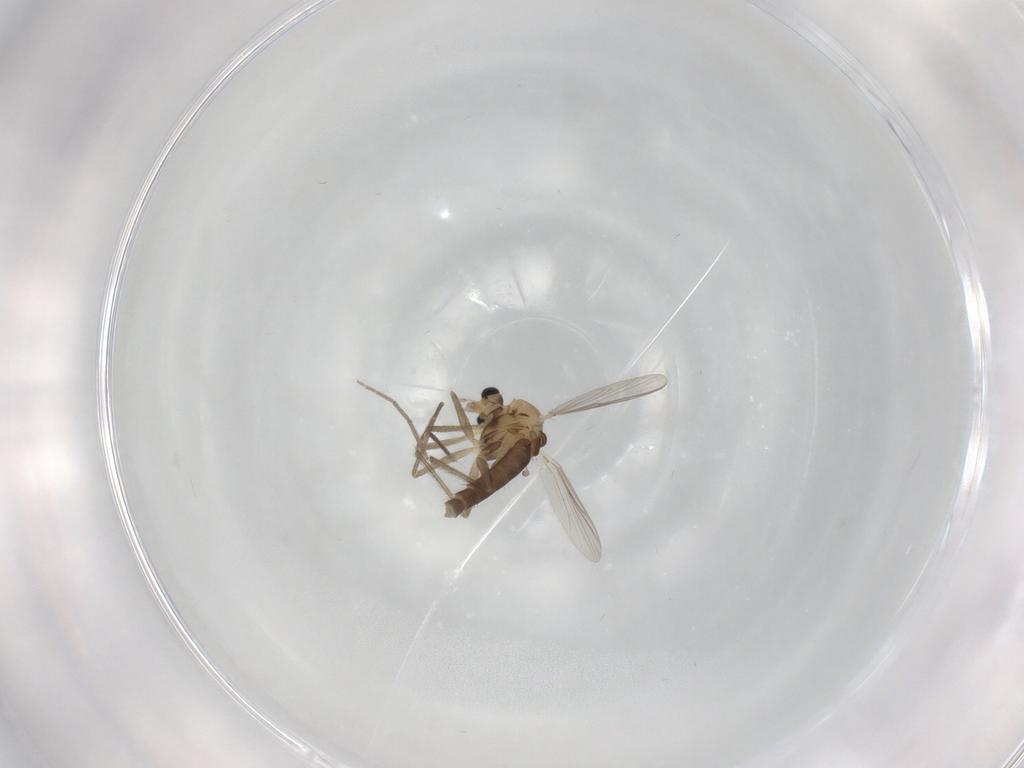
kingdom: Animalia
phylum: Arthropoda
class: Insecta
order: Diptera
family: Chironomidae
